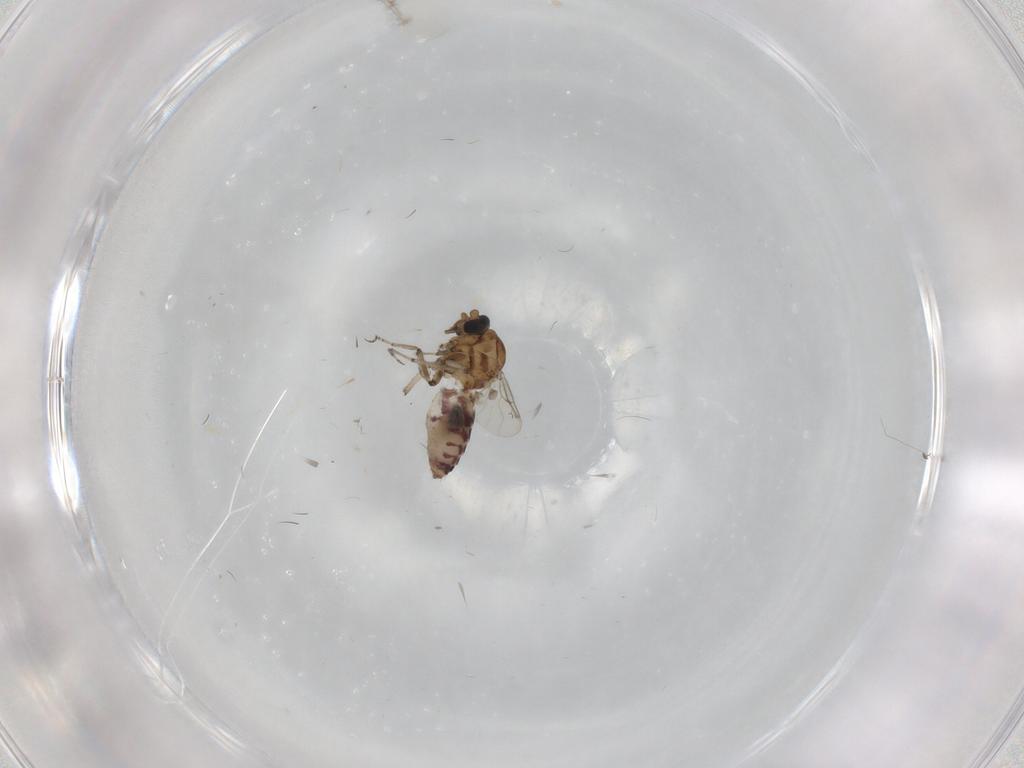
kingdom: Animalia
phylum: Arthropoda
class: Insecta
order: Diptera
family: Ceratopogonidae
